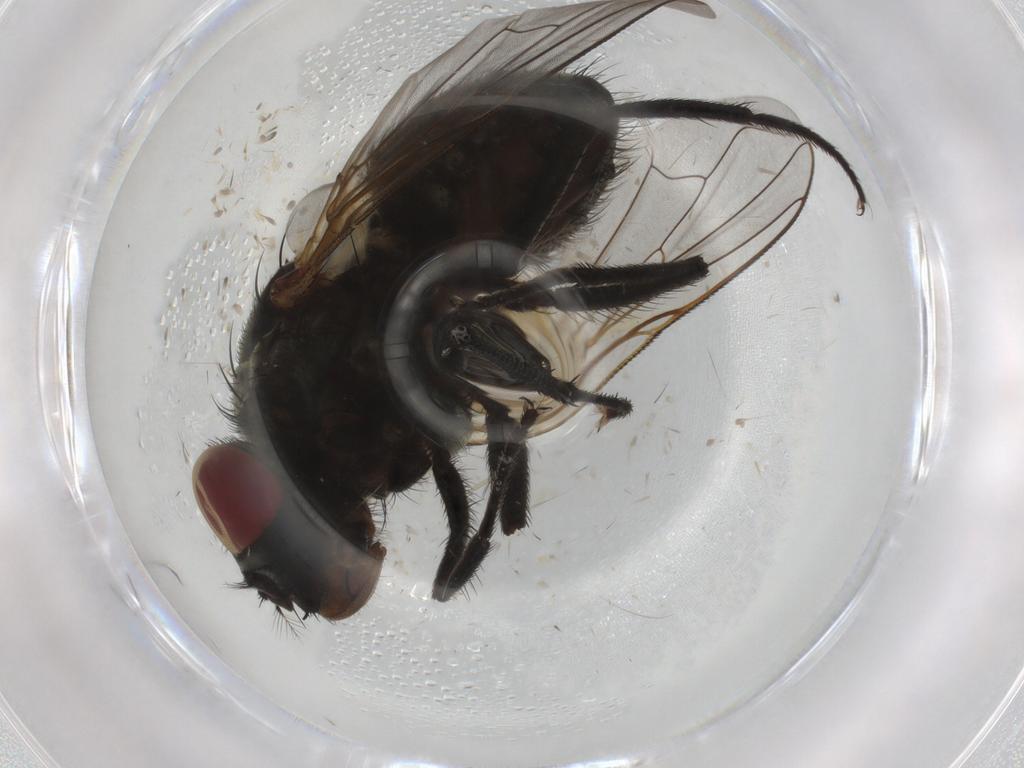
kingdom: Animalia
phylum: Arthropoda
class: Insecta
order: Diptera
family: Muscidae
